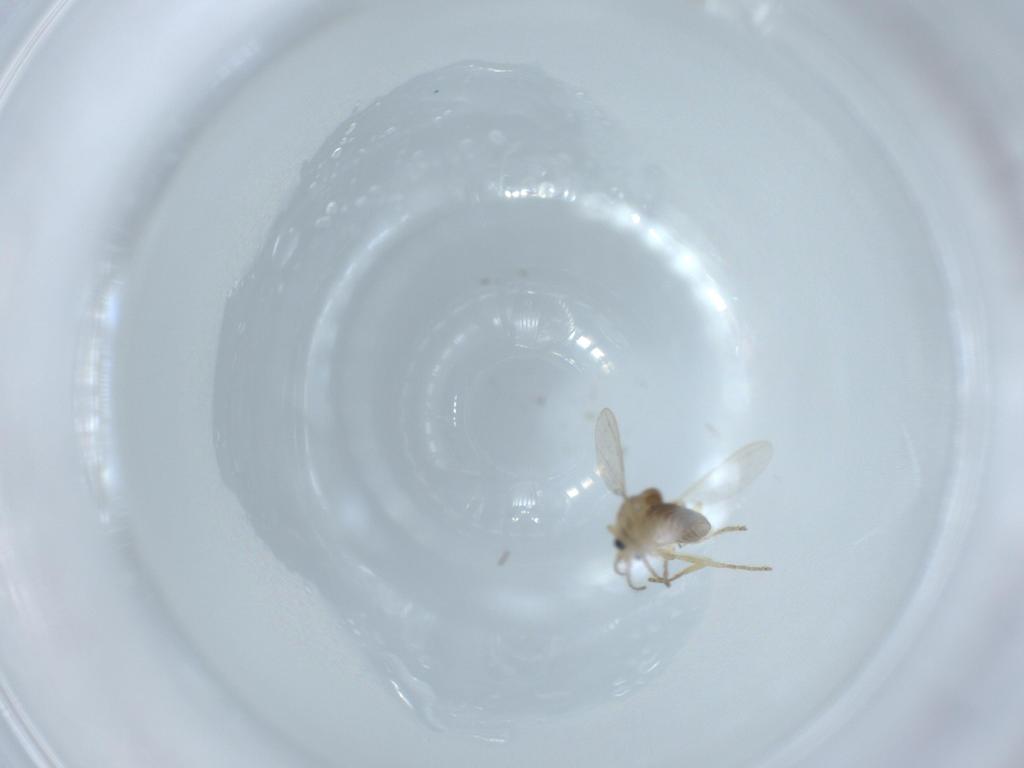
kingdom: Animalia
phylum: Arthropoda
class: Insecta
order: Diptera
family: Ceratopogonidae
